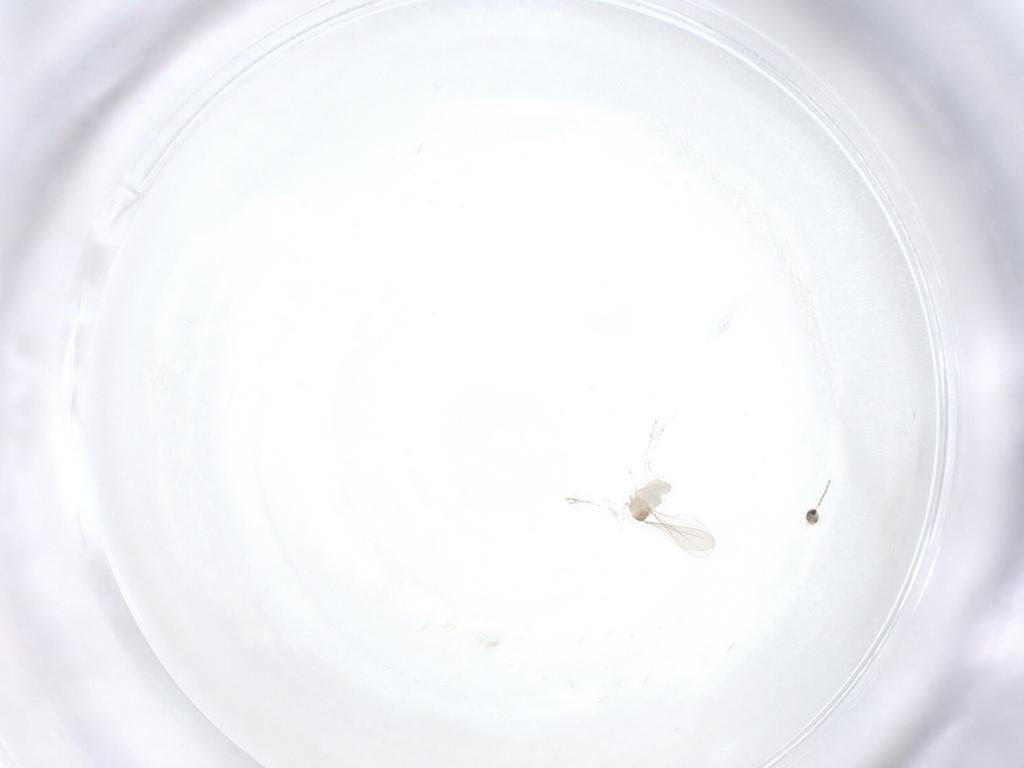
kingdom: Animalia
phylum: Arthropoda
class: Insecta
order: Diptera
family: Cecidomyiidae
